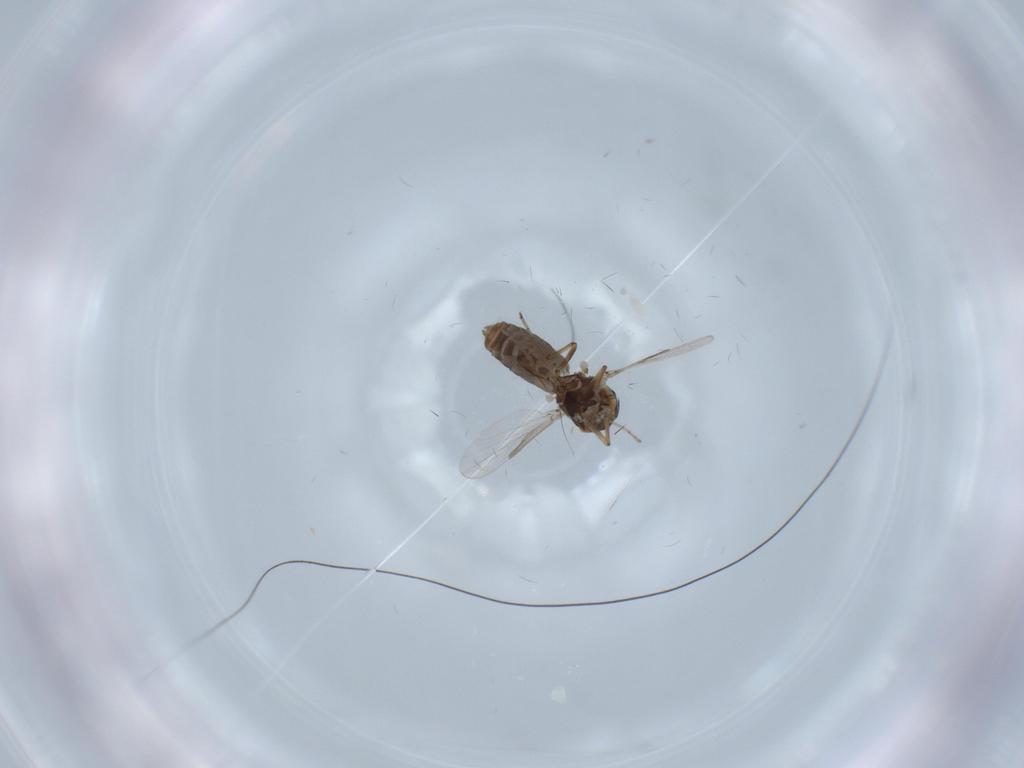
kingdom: Animalia
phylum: Arthropoda
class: Insecta
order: Diptera
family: Ceratopogonidae
